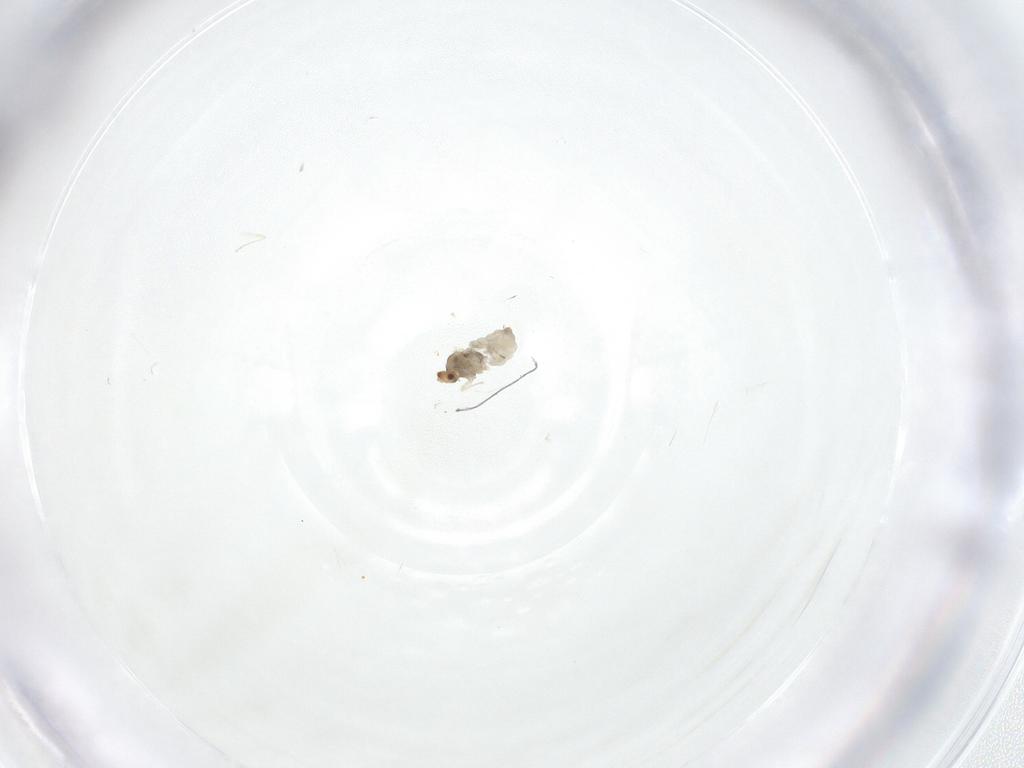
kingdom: Animalia
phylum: Arthropoda
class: Insecta
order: Diptera
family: Cecidomyiidae
